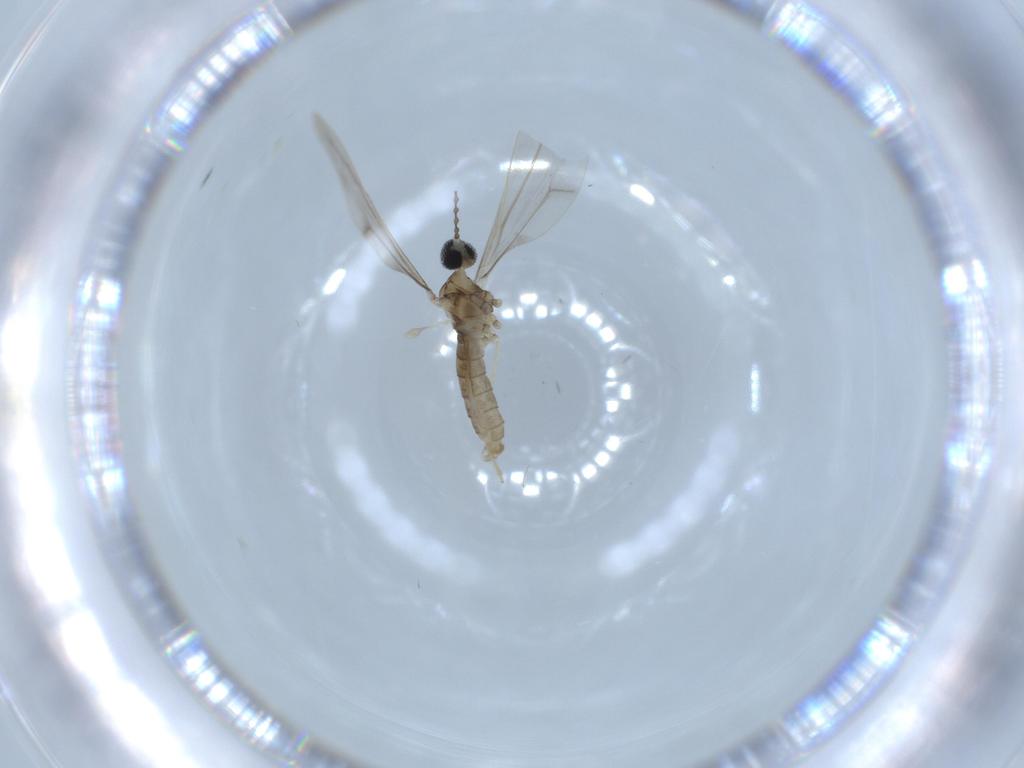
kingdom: Animalia
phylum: Arthropoda
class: Insecta
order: Diptera
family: Cecidomyiidae
